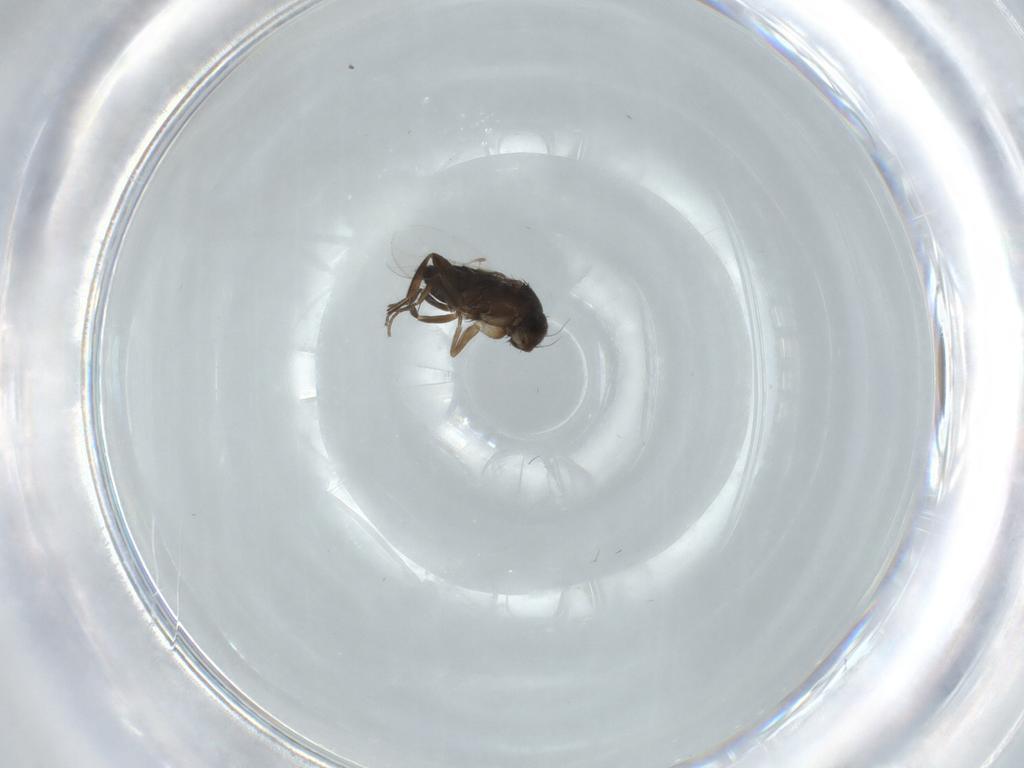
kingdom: Animalia
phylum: Arthropoda
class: Insecta
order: Diptera
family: Phoridae
